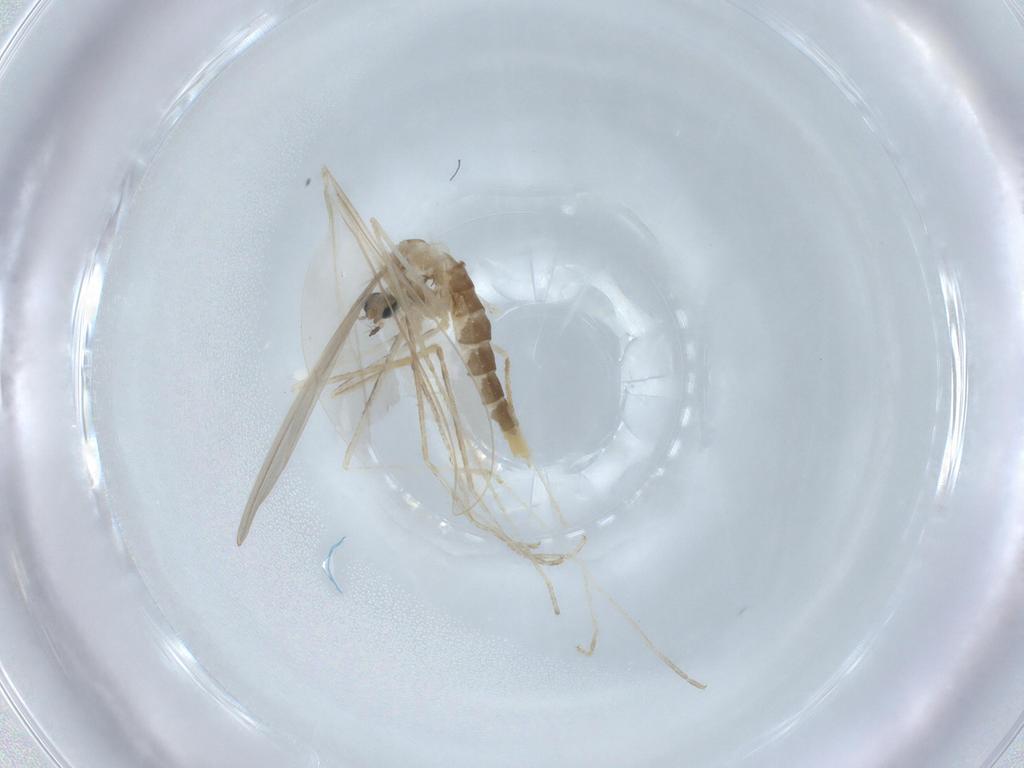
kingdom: Animalia
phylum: Arthropoda
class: Insecta
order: Diptera
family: Cecidomyiidae
